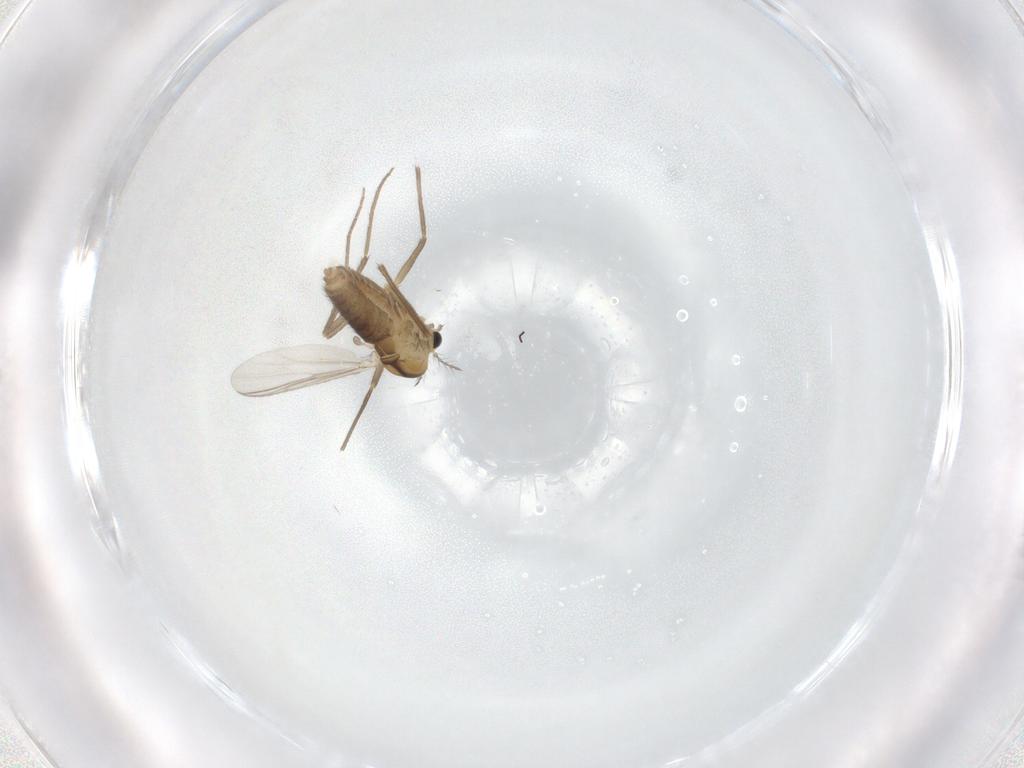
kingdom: Animalia
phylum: Arthropoda
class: Insecta
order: Diptera
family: Chironomidae
